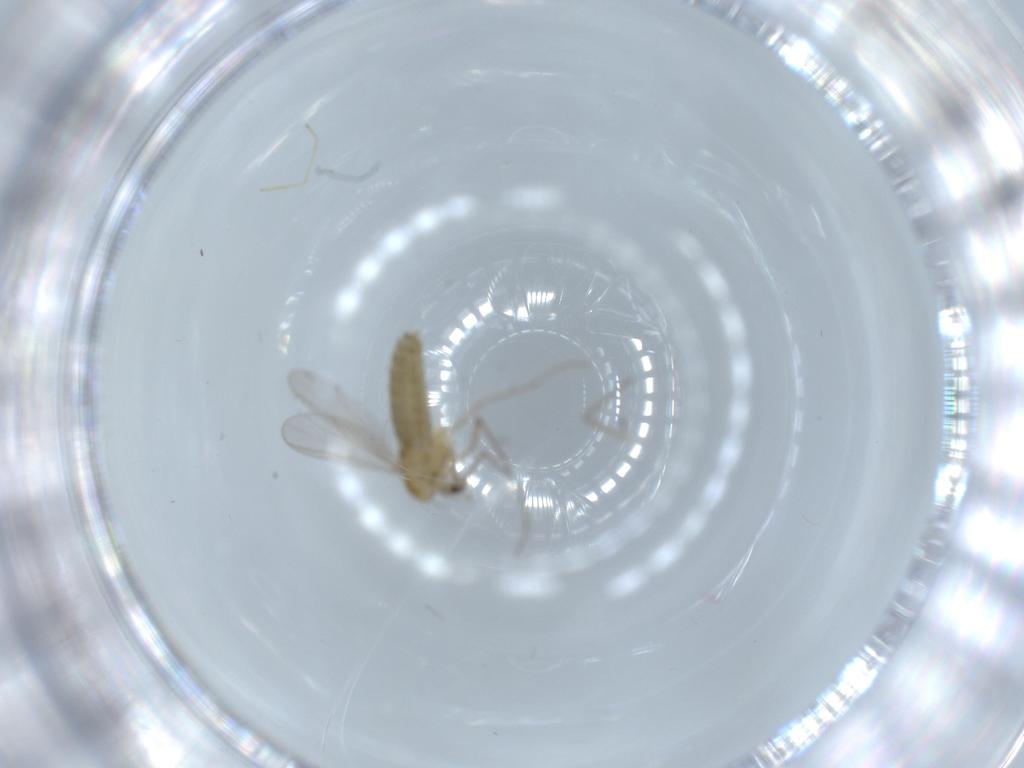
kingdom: Animalia
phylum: Arthropoda
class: Insecta
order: Diptera
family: Chironomidae
